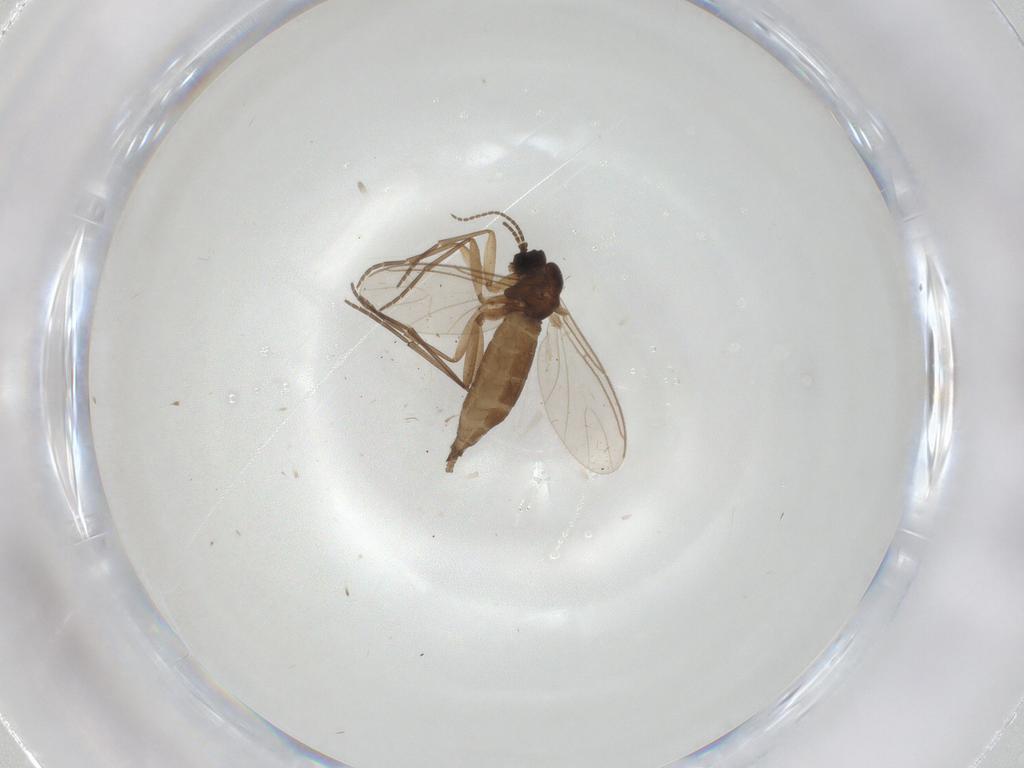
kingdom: Animalia
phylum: Arthropoda
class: Insecta
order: Diptera
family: Sciaridae
